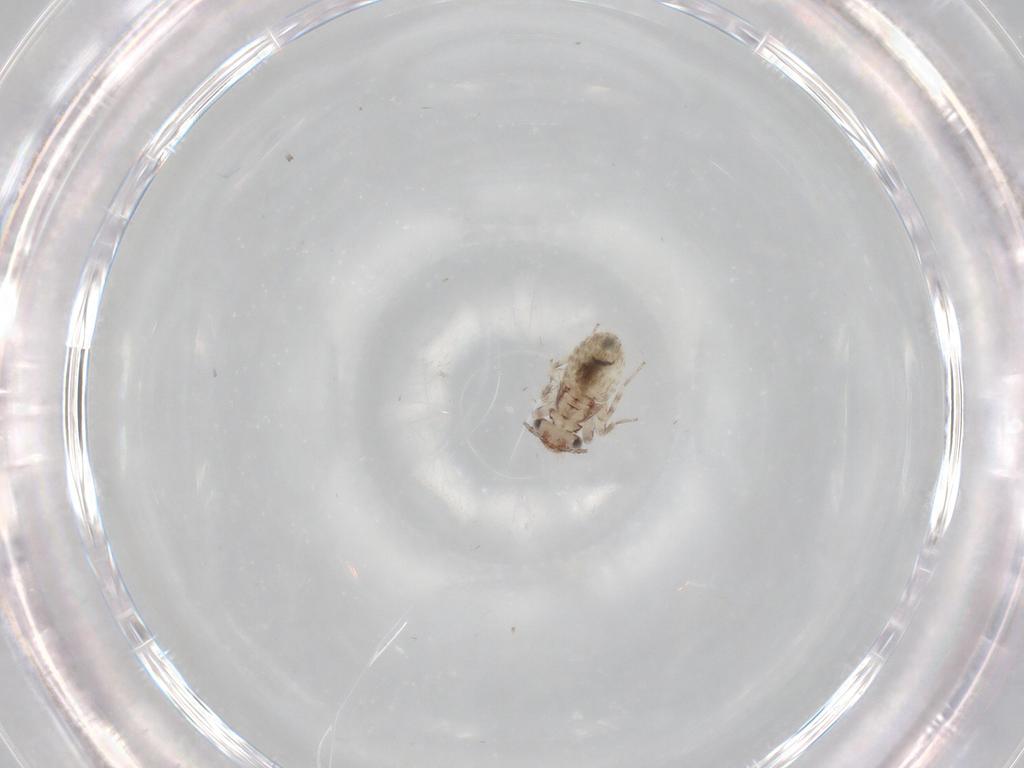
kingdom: Animalia
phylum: Arthropoda
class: Insecta
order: Psocodea
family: Lepidopsocidae
